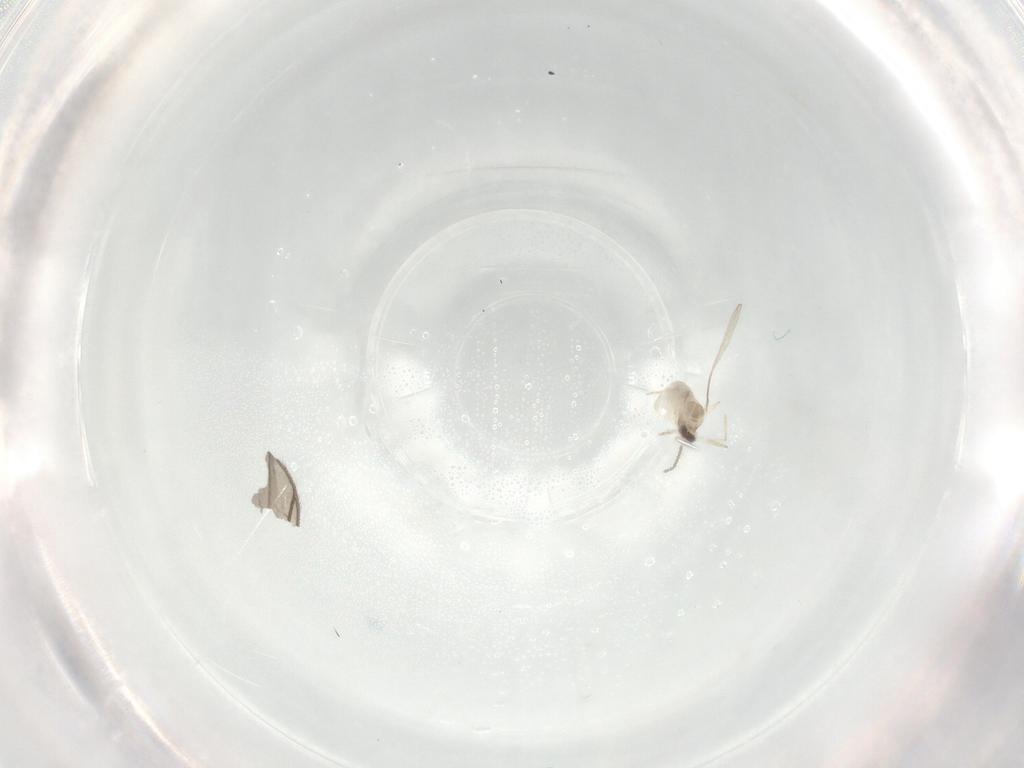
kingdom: Animalia
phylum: Arthropoda
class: Insecta
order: Diptera
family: Cecidomyiidae
